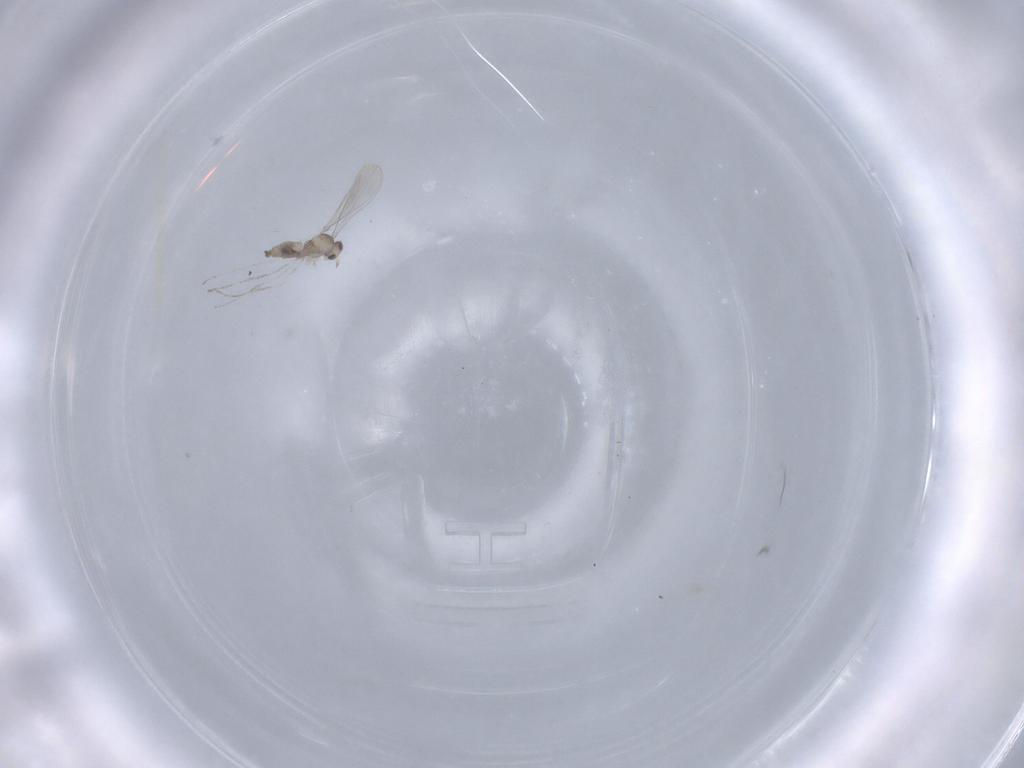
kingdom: Animalia
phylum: Arthropoda
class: Insecta
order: Diptera
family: Cecidomyiidae
